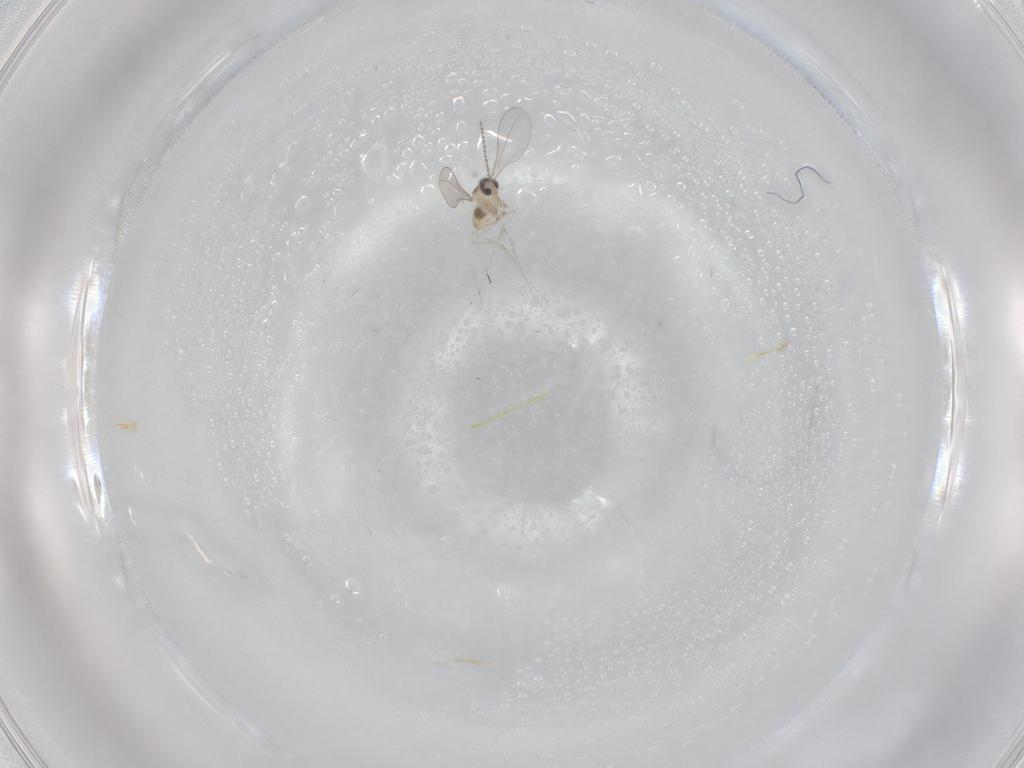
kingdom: Animalia
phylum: Arthropoda
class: Insecta
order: Diptera
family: Cecidomyiidae
